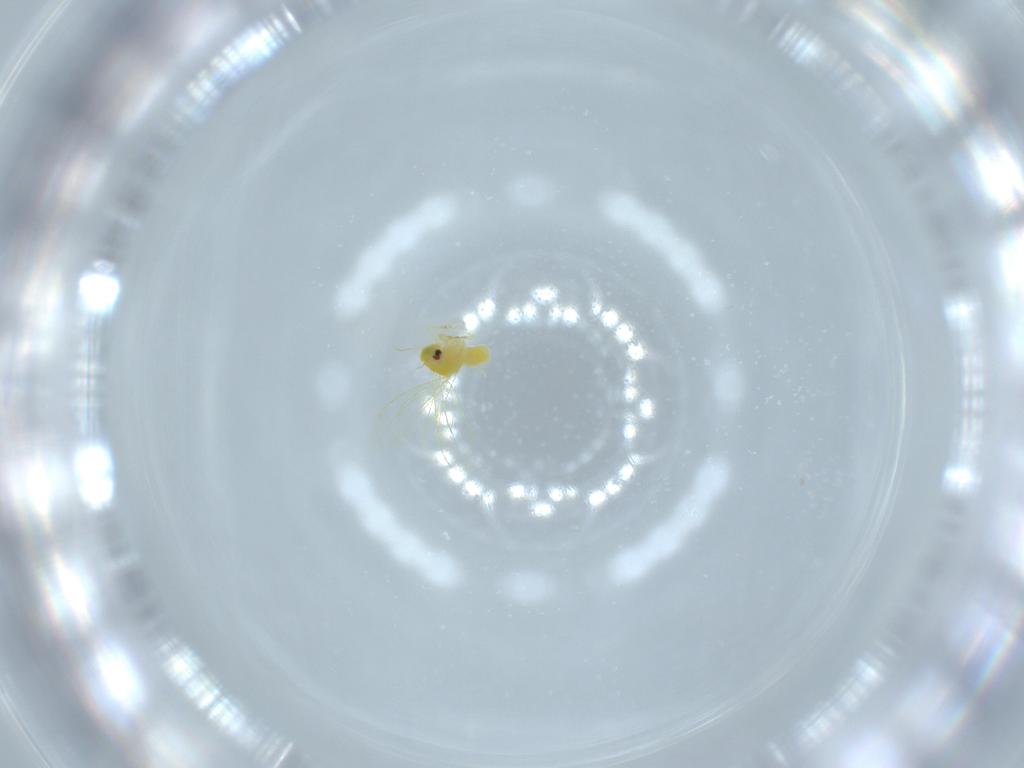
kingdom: Animalia
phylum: Arthropoda
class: Insecta
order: Hemiptera
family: Aleyrodidae
